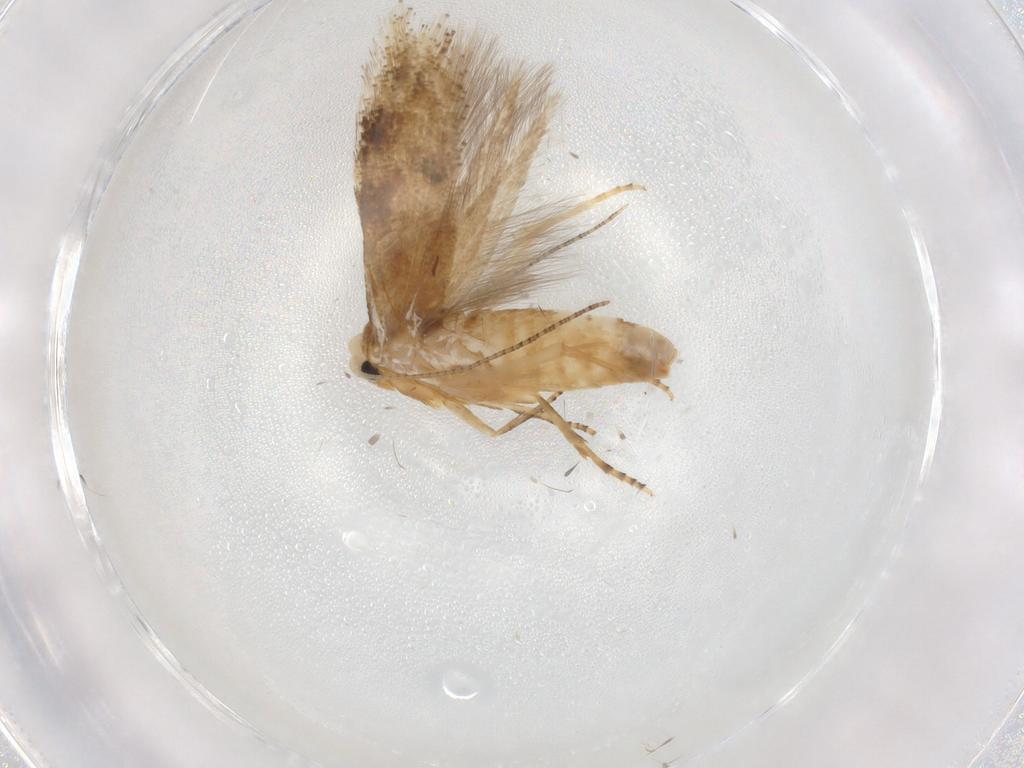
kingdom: Animalia
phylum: Arthropoda
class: Insecta
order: Lepidoptera
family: Bucculatricidae
